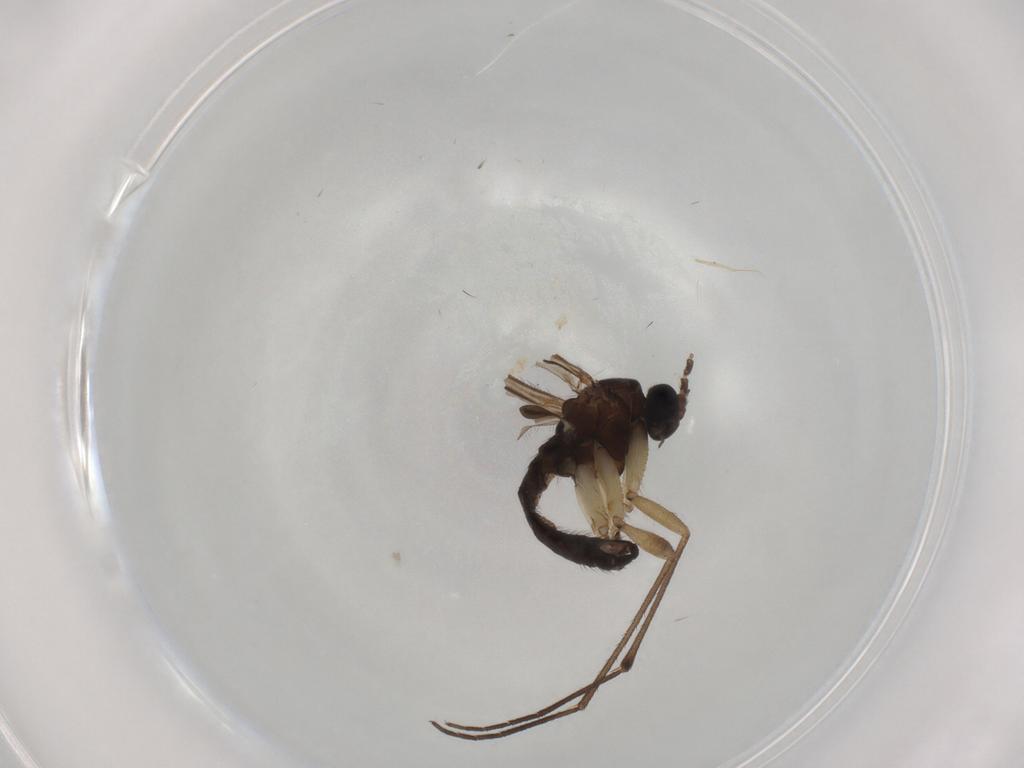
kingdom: Animalia
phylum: Arthropoda
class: Insecta
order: Diptera
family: Sciaridae
